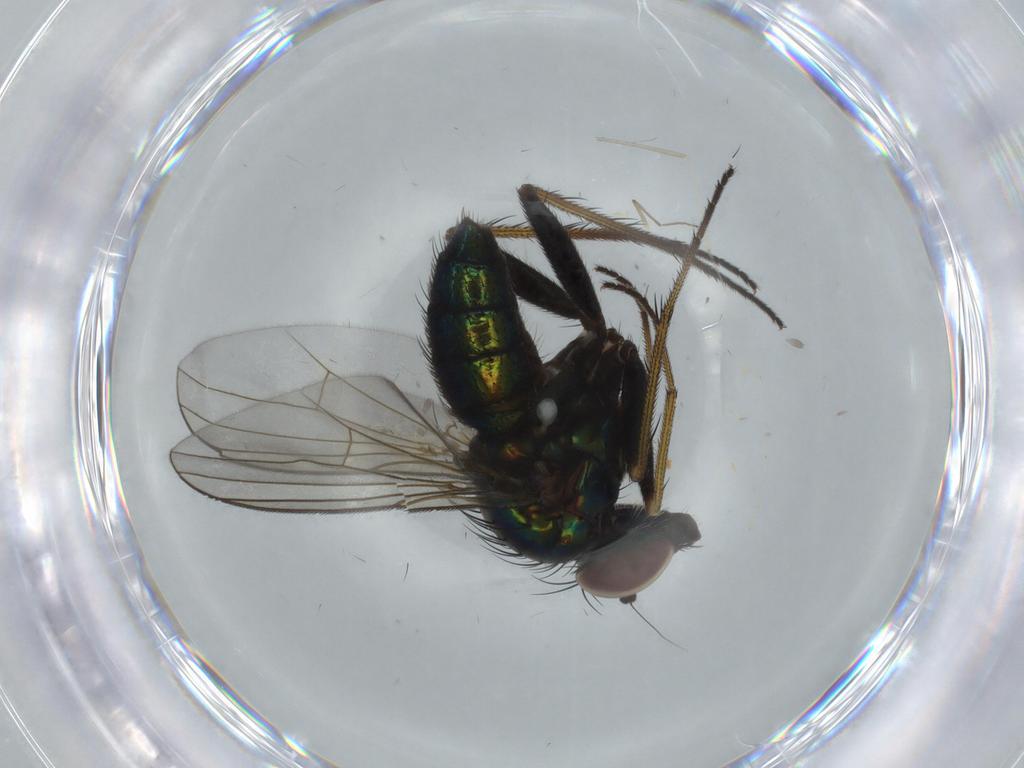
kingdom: Animalia
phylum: Arthropoda
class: Insecta
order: Diptera
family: Dolichopodidae
